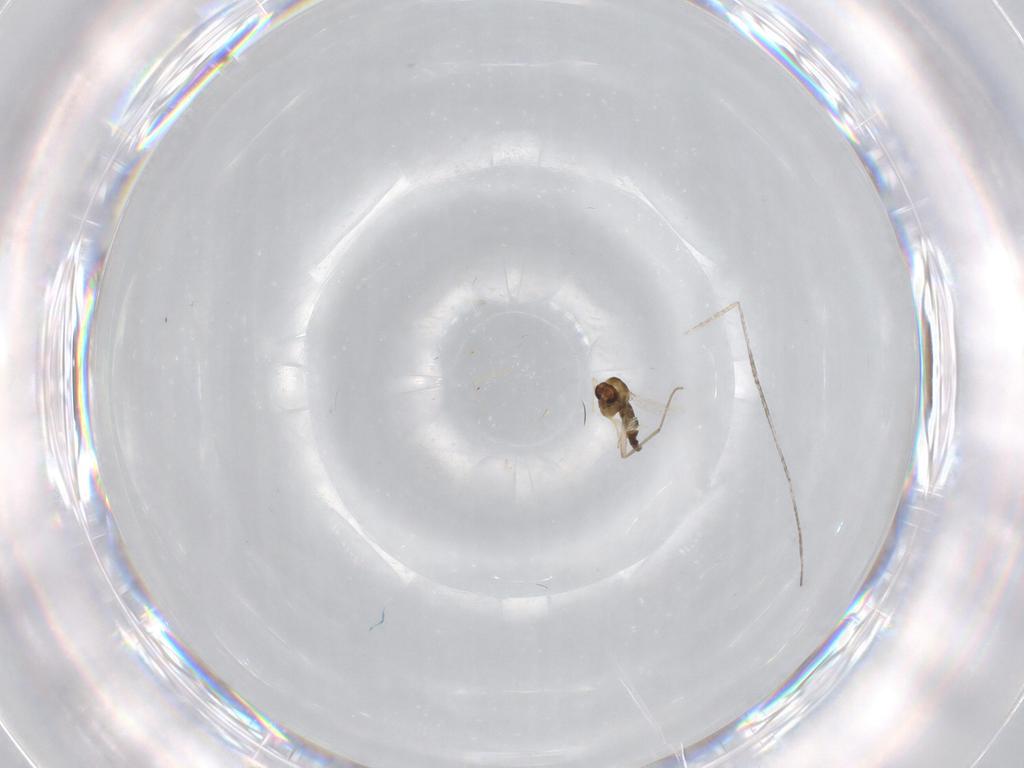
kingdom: Animalia
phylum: Arthropoda
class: Insecta
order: Diptera
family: Chironomidae
